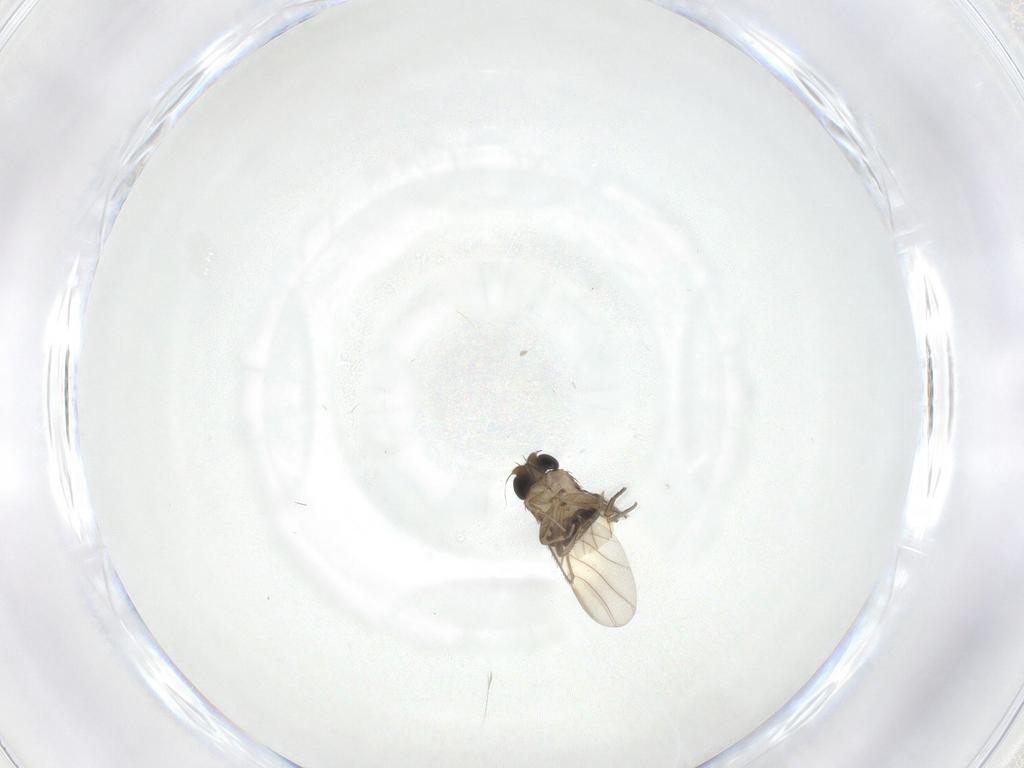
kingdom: Animalia
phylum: Arthropoda
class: Insecta
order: Diptera
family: Phoridae
